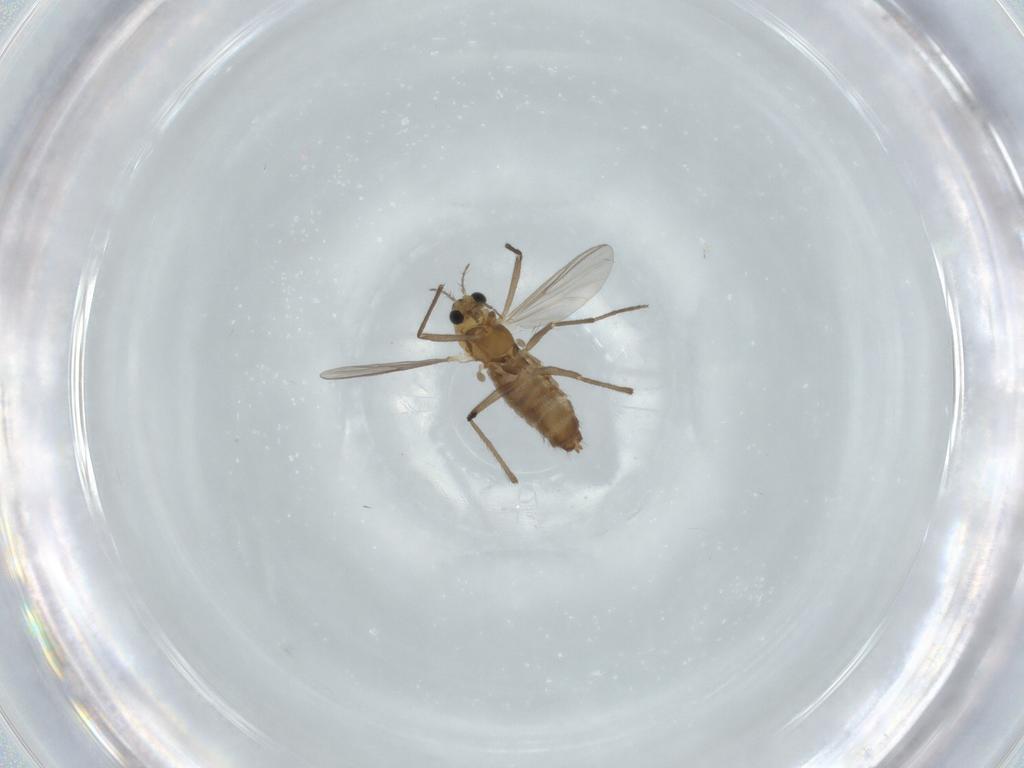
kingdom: Animalia
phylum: Arthropoda
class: Insecta
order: Diptera
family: Chironomidae
